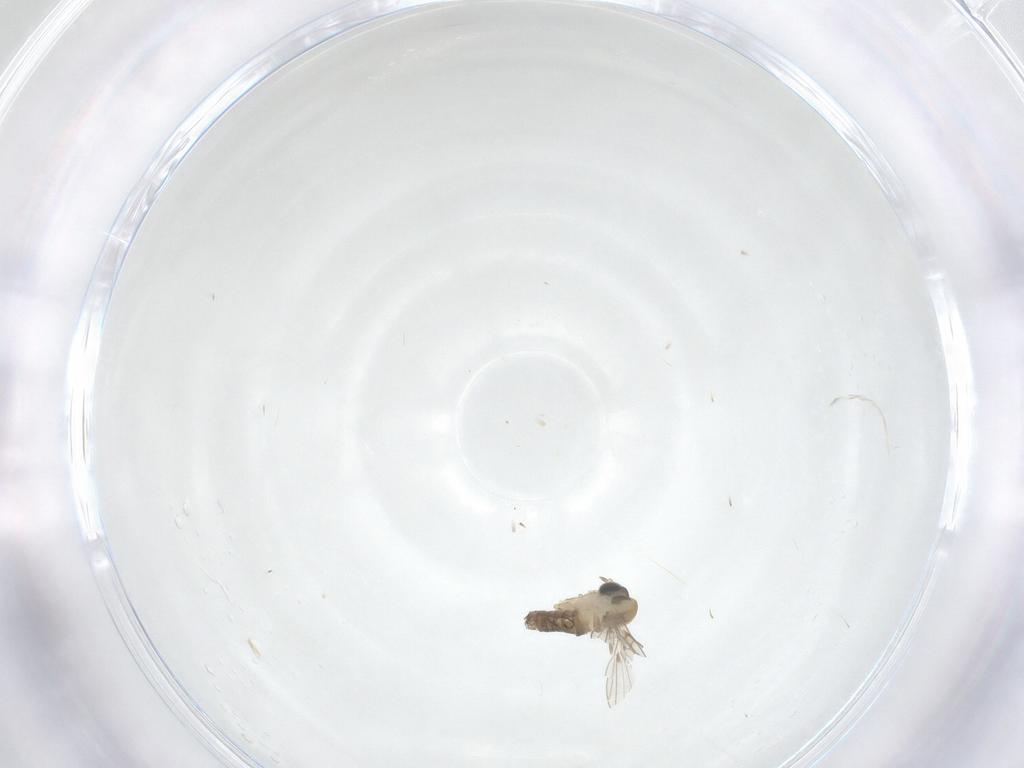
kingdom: Animalia
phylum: Arthropoda
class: Insecta
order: Diptera
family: Psychodidae
